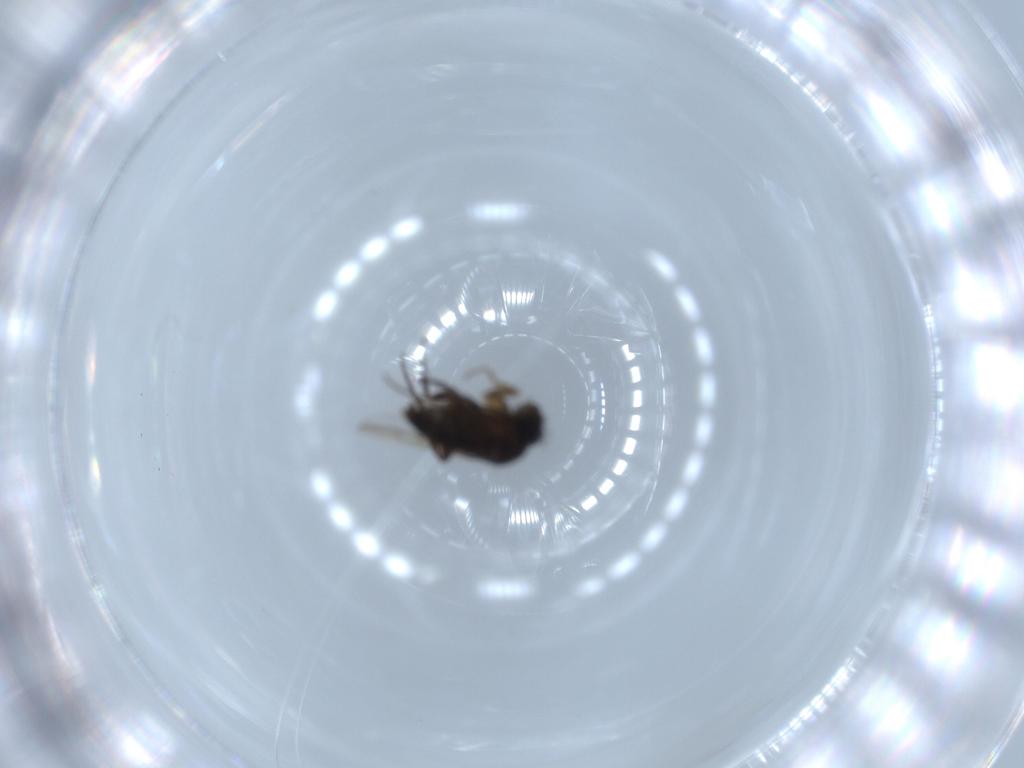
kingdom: Animalia
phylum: Arthropoda
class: Insecta
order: Diptera
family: Phoridae
